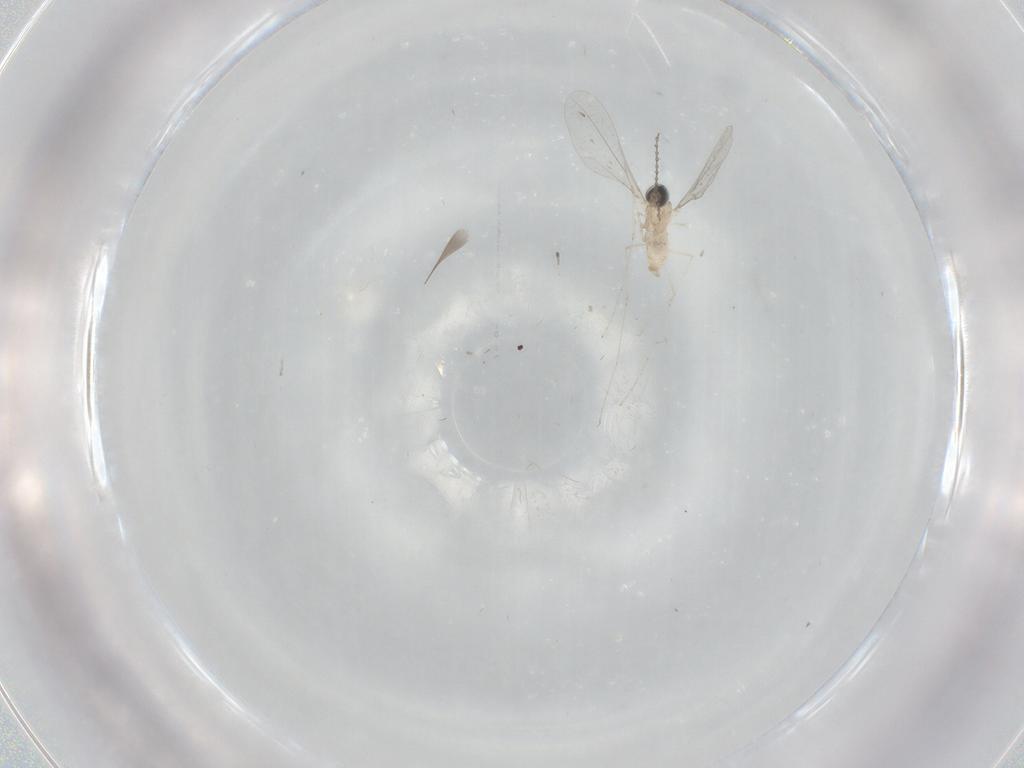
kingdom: Animalia
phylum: Arthropoda
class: Insecta
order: Diptera
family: Cecidomyiidae
